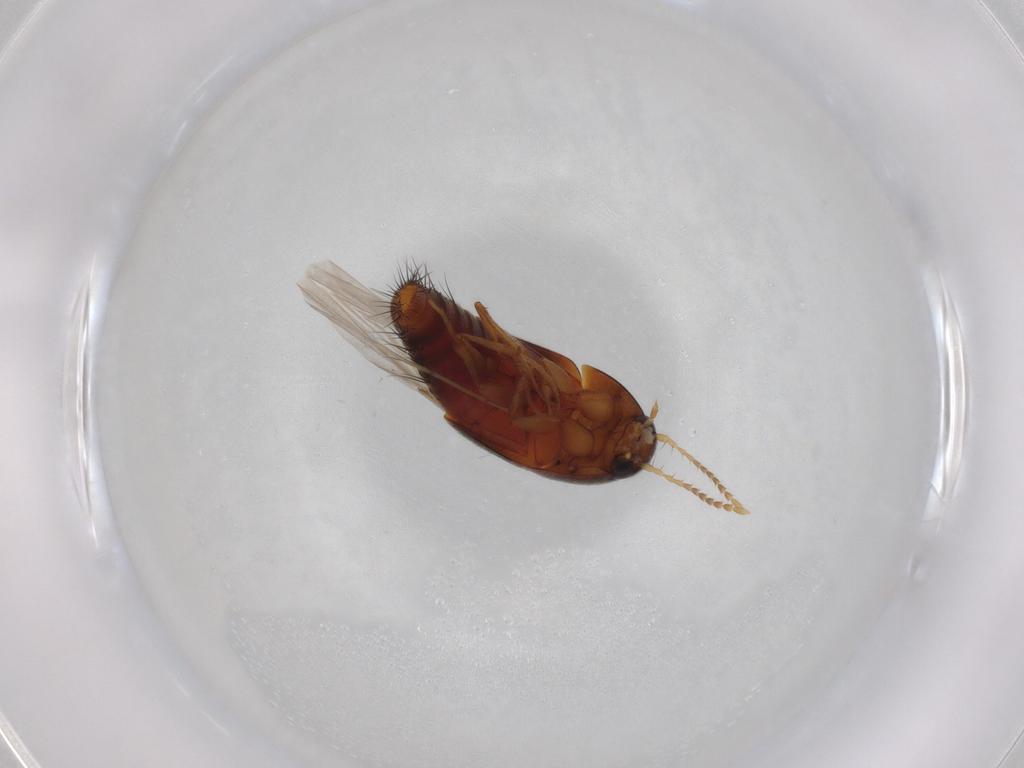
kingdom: Animalia
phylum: Arthropoda
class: Insecta
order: Coleoptera
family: Staphylinidae
